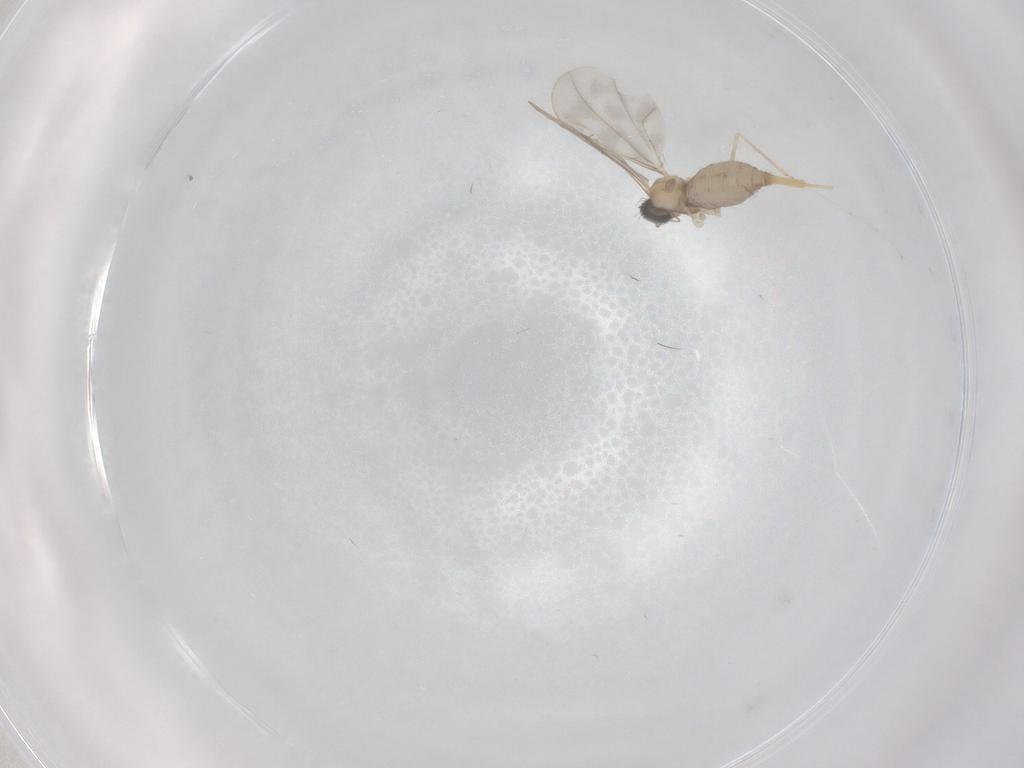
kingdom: Animalia
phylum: Arthropoda
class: Insecta
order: Diptera
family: Cecidomyiidae
